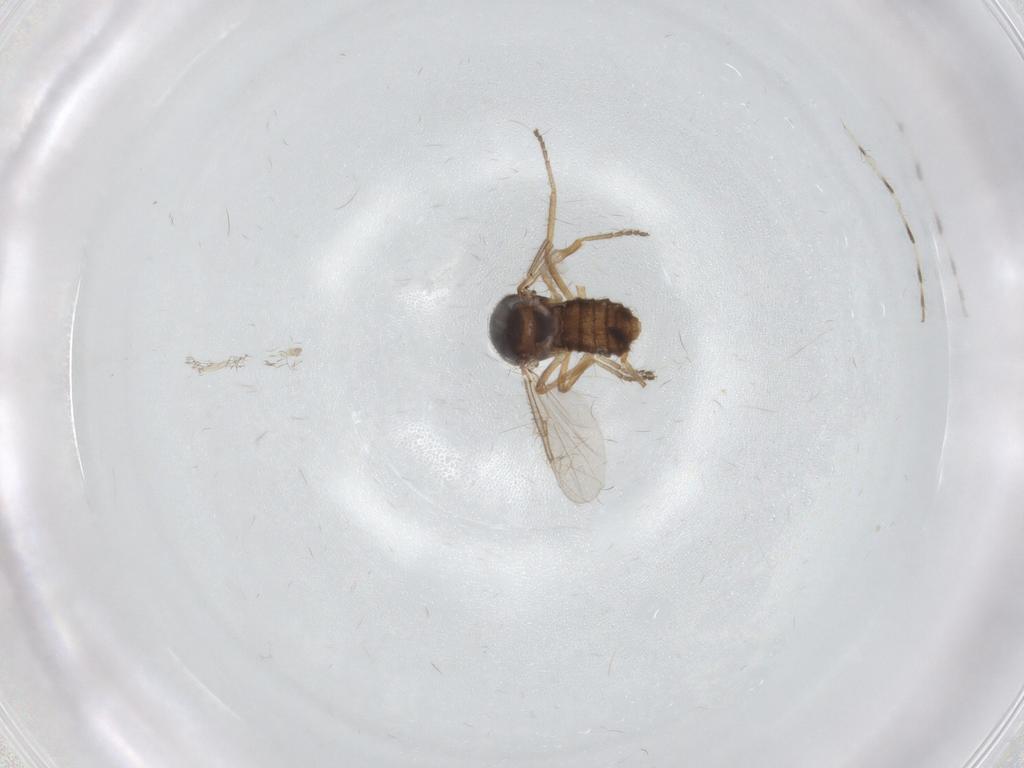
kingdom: Animalia
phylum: Arthropoda
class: Insecta
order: Diptera
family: Ceratopogonidae
